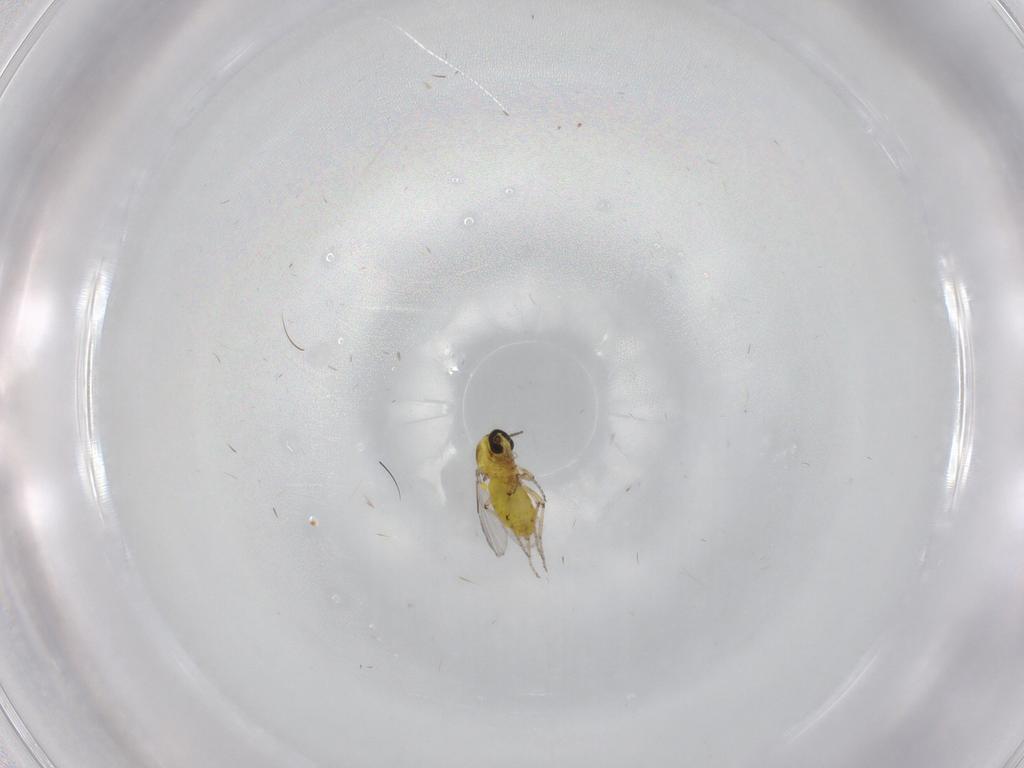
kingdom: Animalia
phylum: Arthropoda
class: Insecta
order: Diptera
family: Ceratopogonidae
